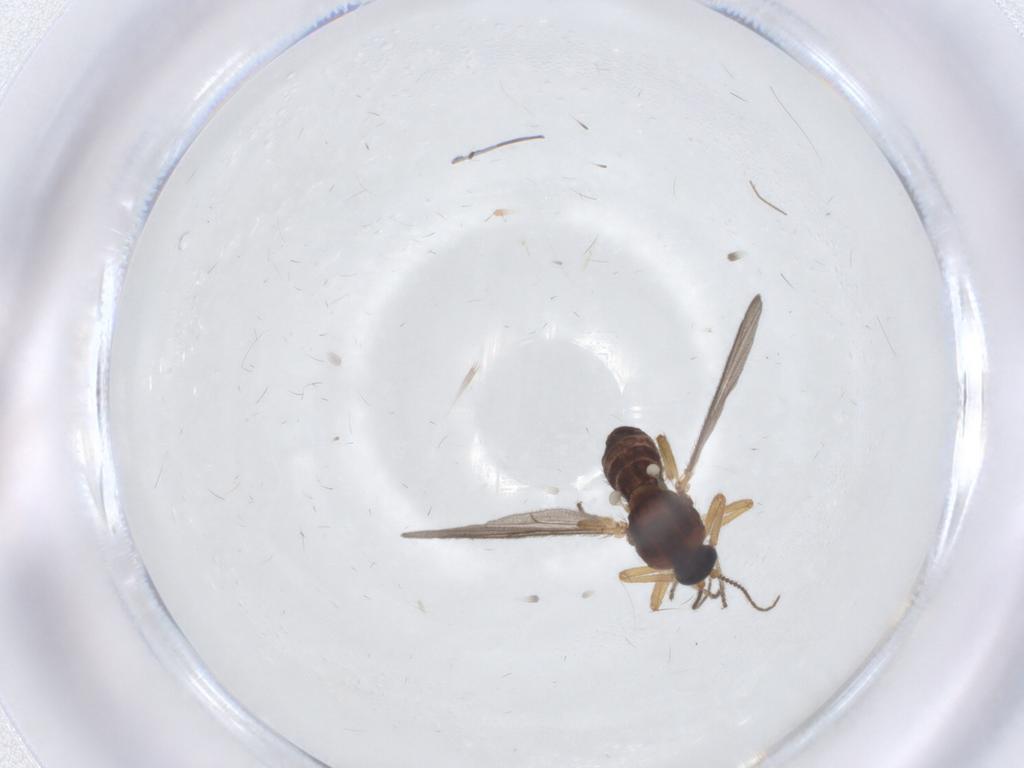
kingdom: Animalia
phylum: Arthropoda
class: Insecta
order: Diptera
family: Ceratopogonidae
